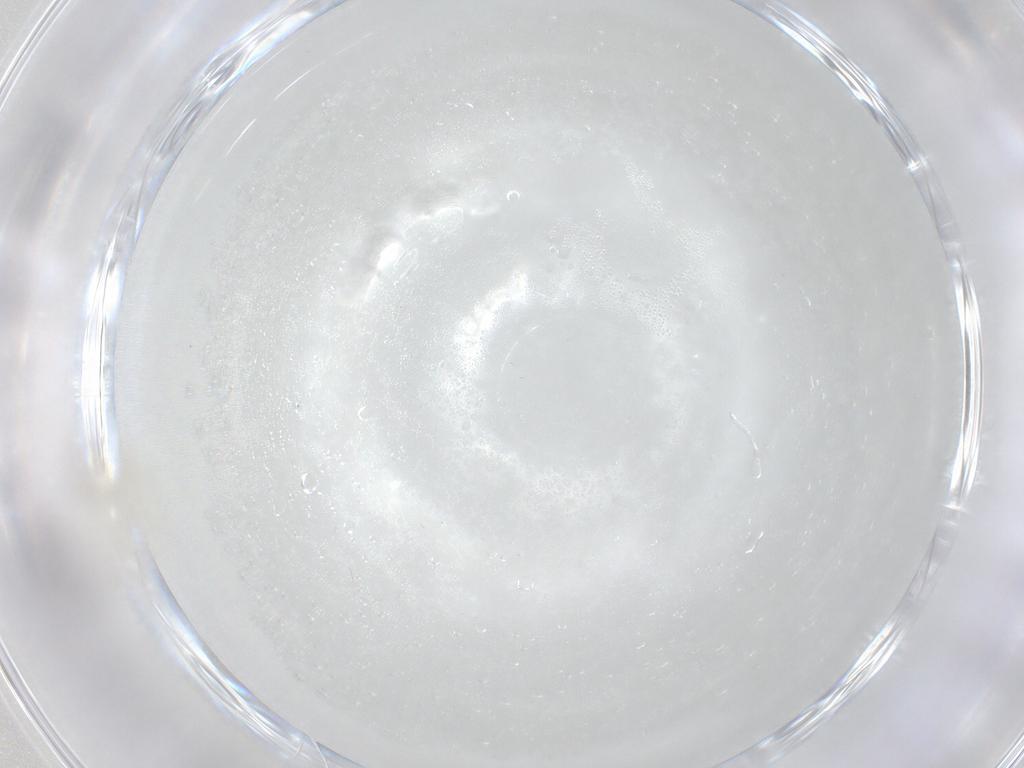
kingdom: Animalia
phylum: Arthropoda
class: Insecta
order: Diptera
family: Cecidomyiidae
